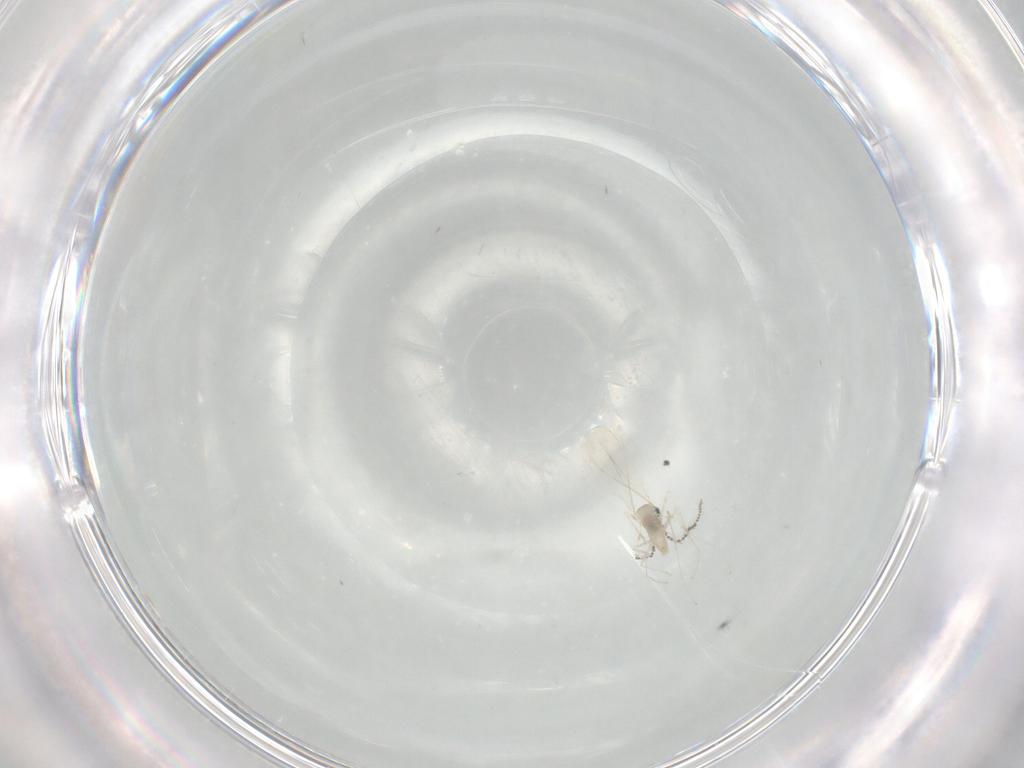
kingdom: Animalia
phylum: Arthropoda
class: Insecta
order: Diptera
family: Cecidomyiidae
